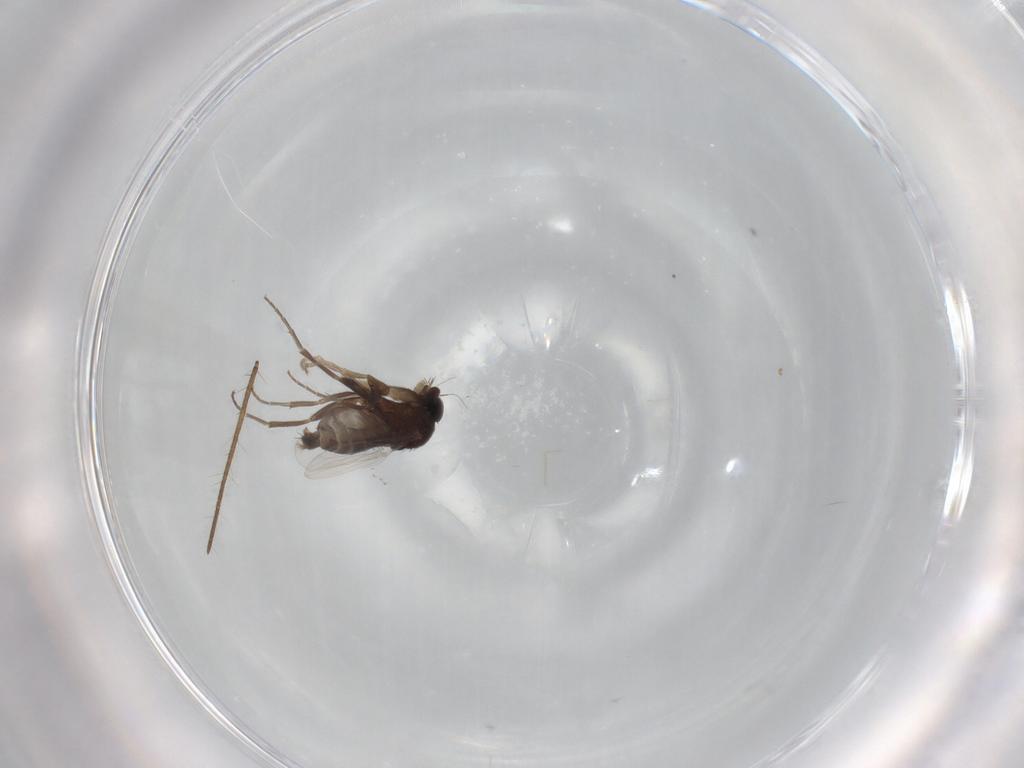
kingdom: Animalia
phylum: Arthropoda
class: Insecta
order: Diptera
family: Phoridae
